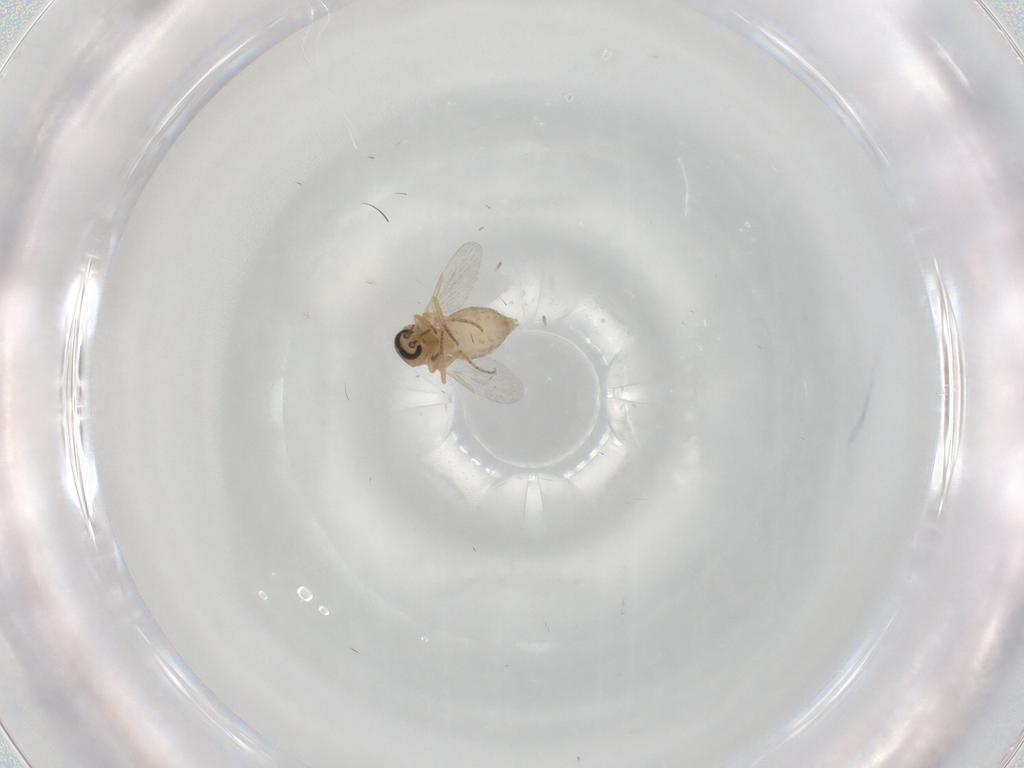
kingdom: Animalia
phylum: Arthropoda
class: Insecta
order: Diptera
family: Ceratopogonidae
